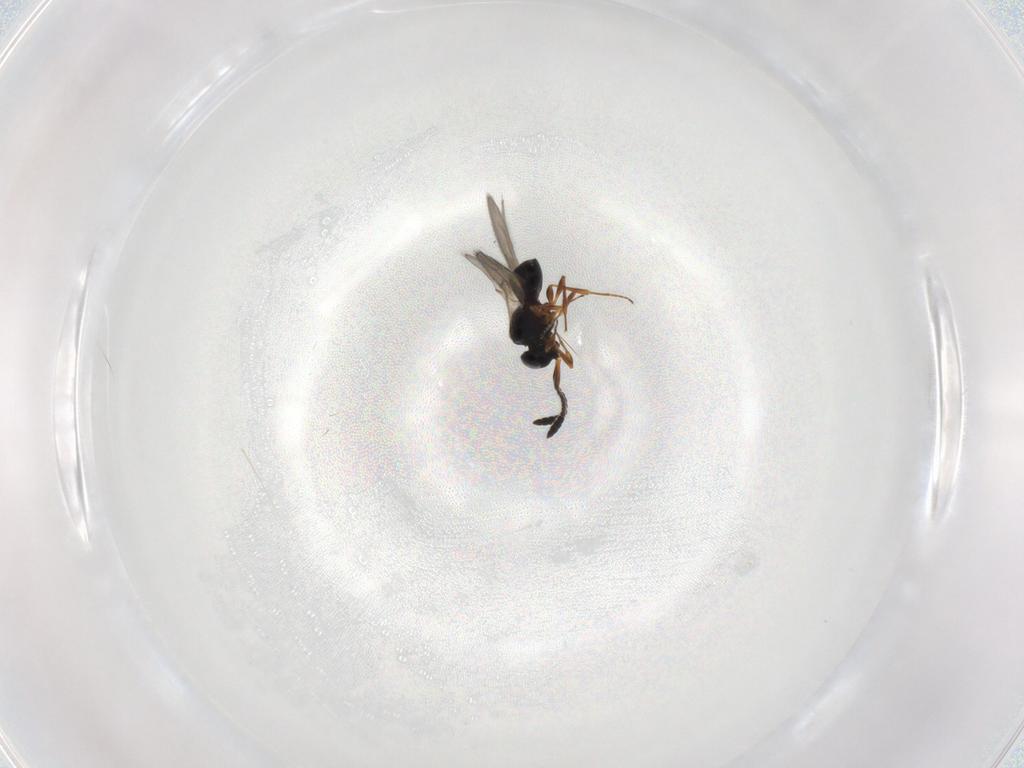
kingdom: Animalia
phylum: Arthropoda
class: Insecta
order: Hymenoptera
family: Scelionidae
